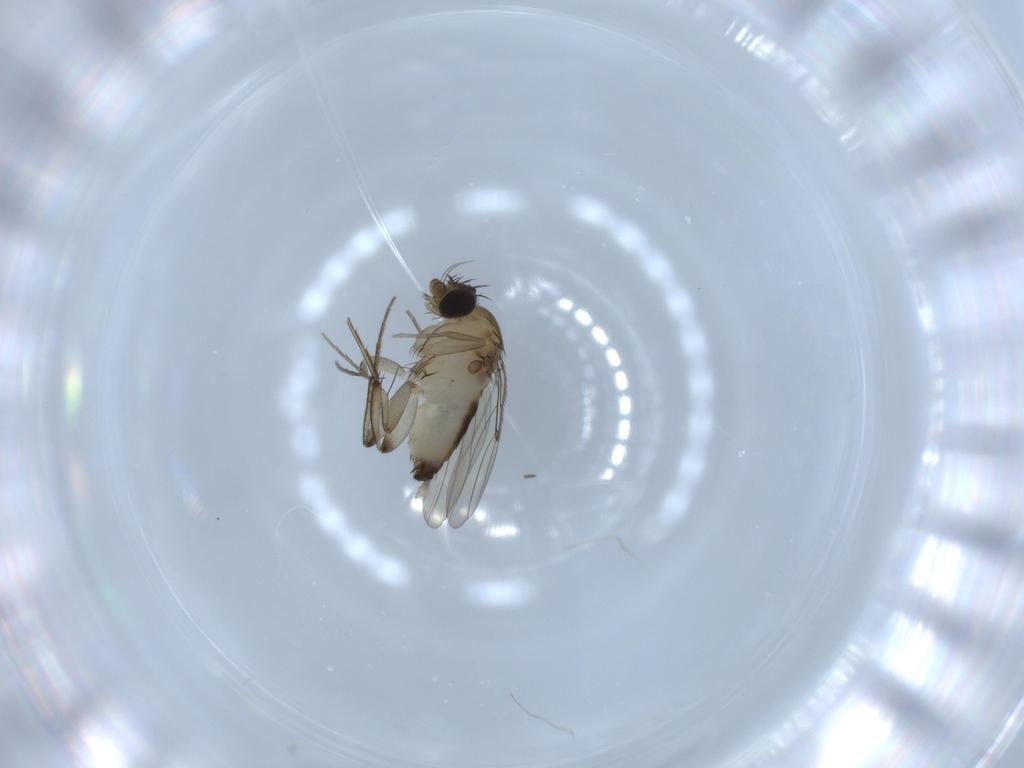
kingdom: Animalia
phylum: Arthropoda
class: Insecta
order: Diptera
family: Phoridae
